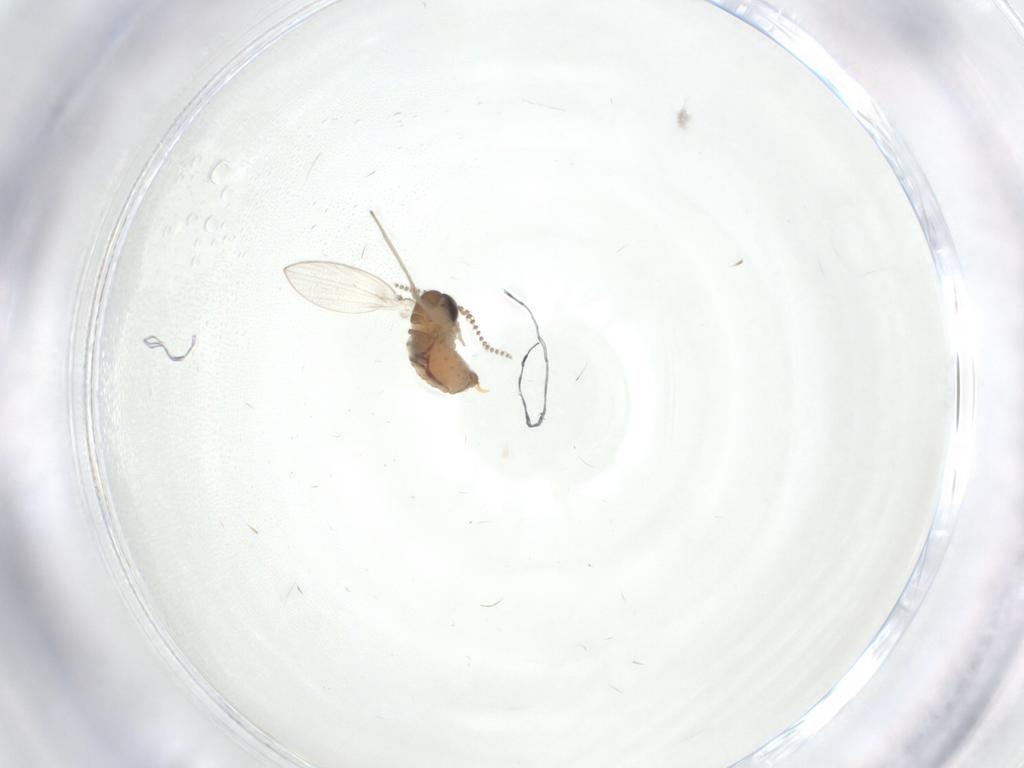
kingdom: Animalia
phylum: Arthropoda
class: Insecta
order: Diptera
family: Psychodidae
